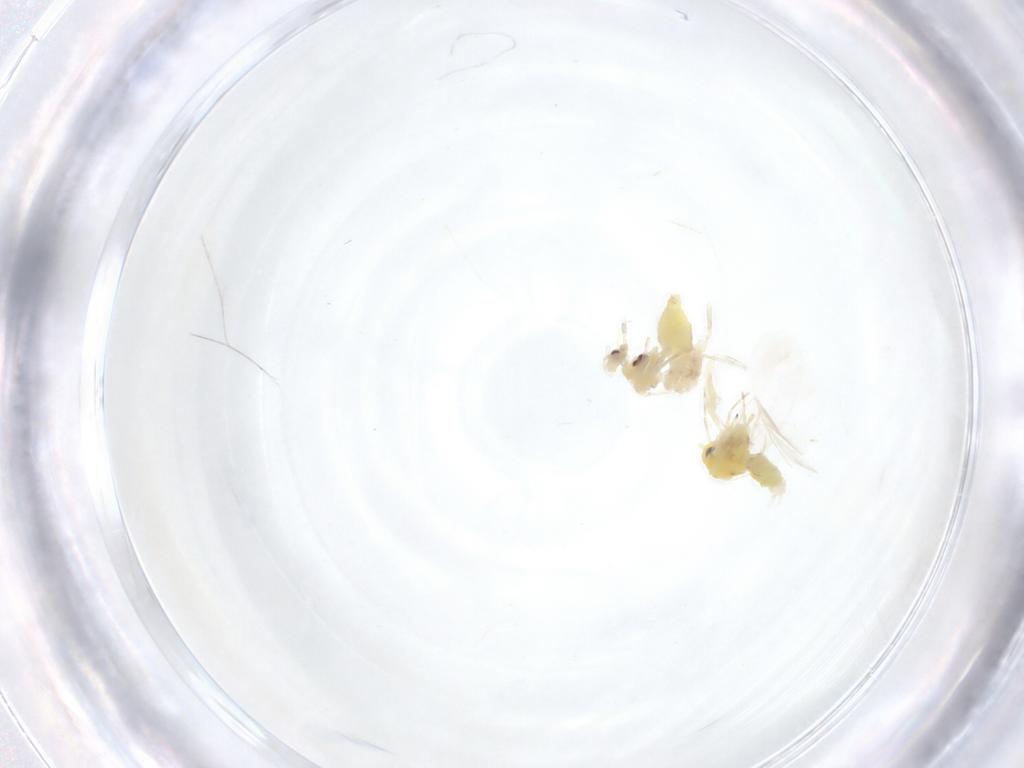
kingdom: Animalia
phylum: Arthropoda
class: Insecta
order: Hemiptera
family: Aleyrodidae
